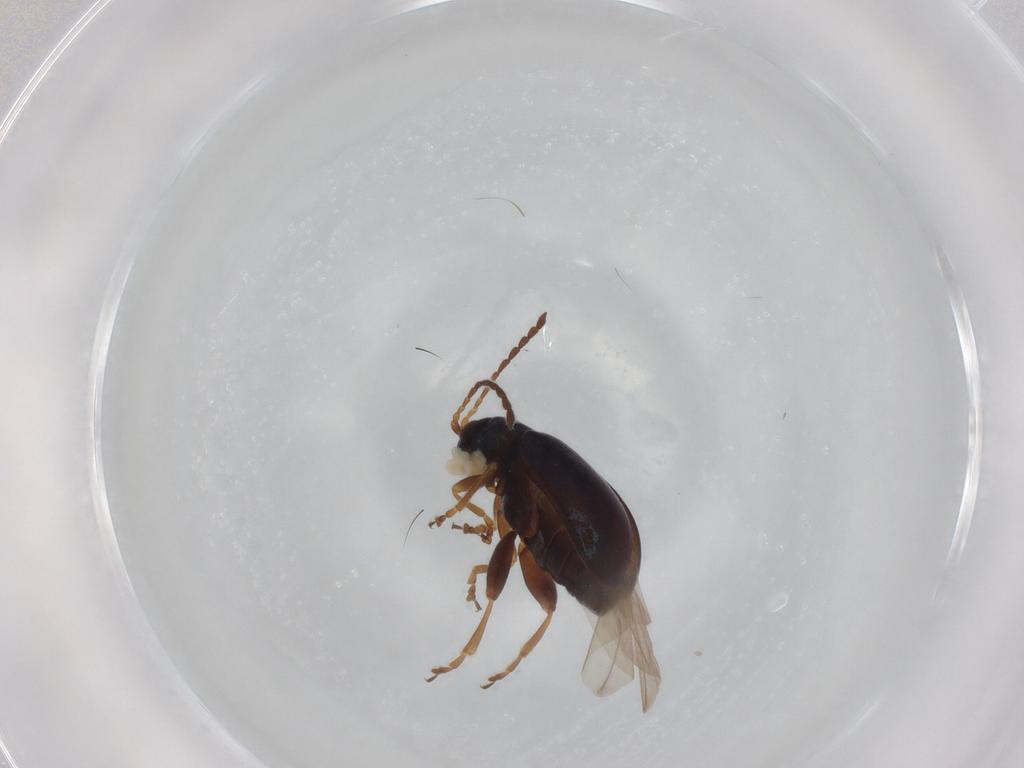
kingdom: Animalia
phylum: Arthropoda
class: Insecta
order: Coleoptera
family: Chrysomelidae
